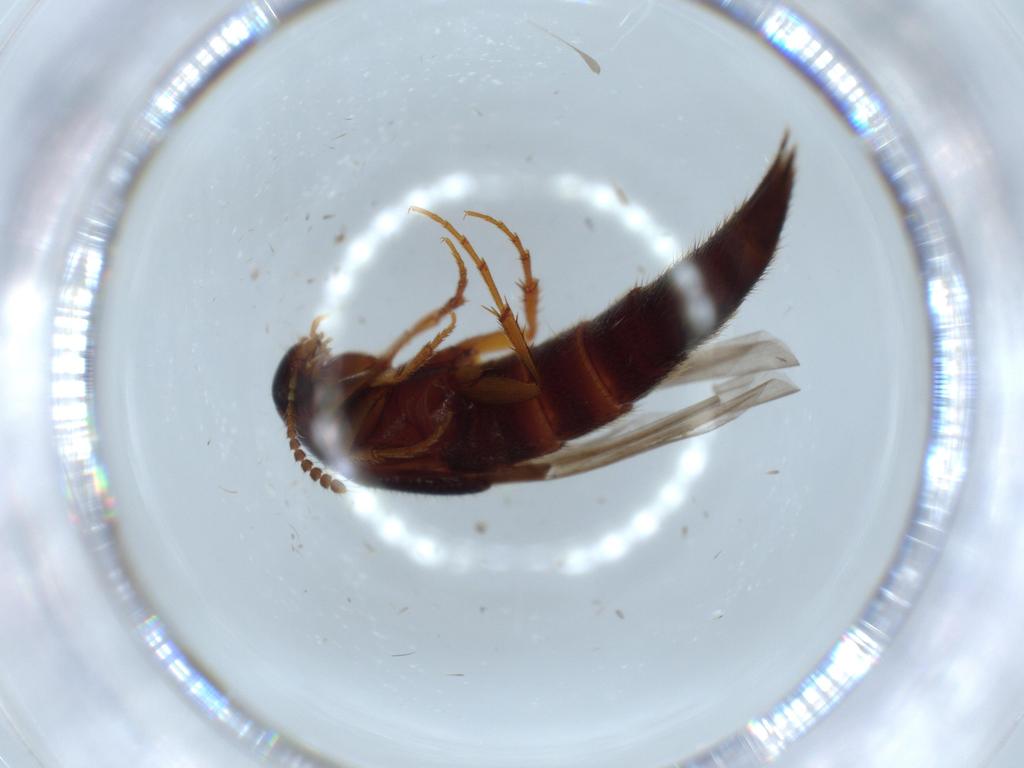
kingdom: Animalia
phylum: Arthropoda
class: Insecta
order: Coleoptera
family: Staphylinidae
